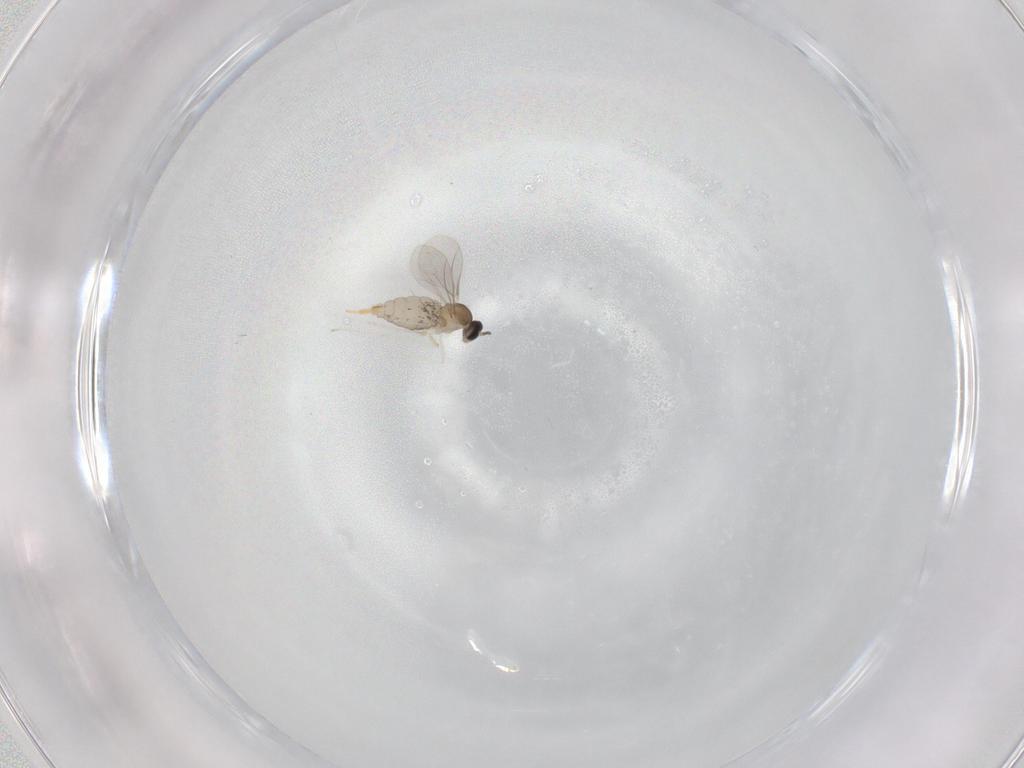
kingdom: Animalia
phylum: Arthropoda
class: Insecta
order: Diptera
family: Cecidomyiidae
